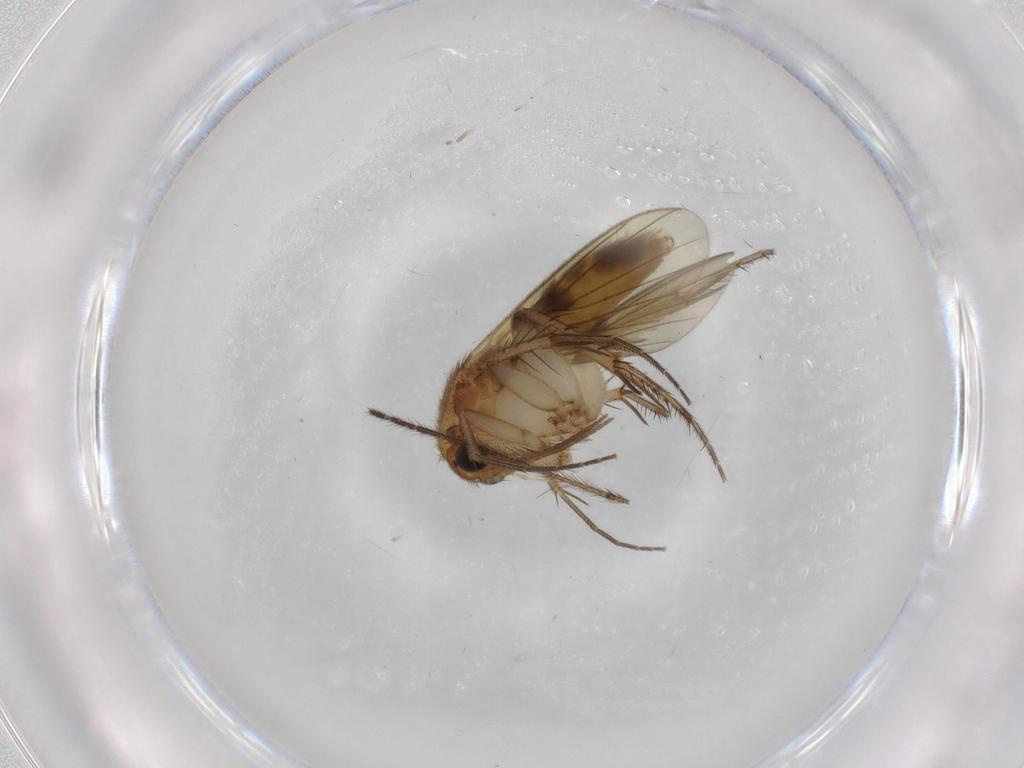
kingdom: Animalia
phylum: Arthropoda
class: Insecta
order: Diptera
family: Mycetophilidae
